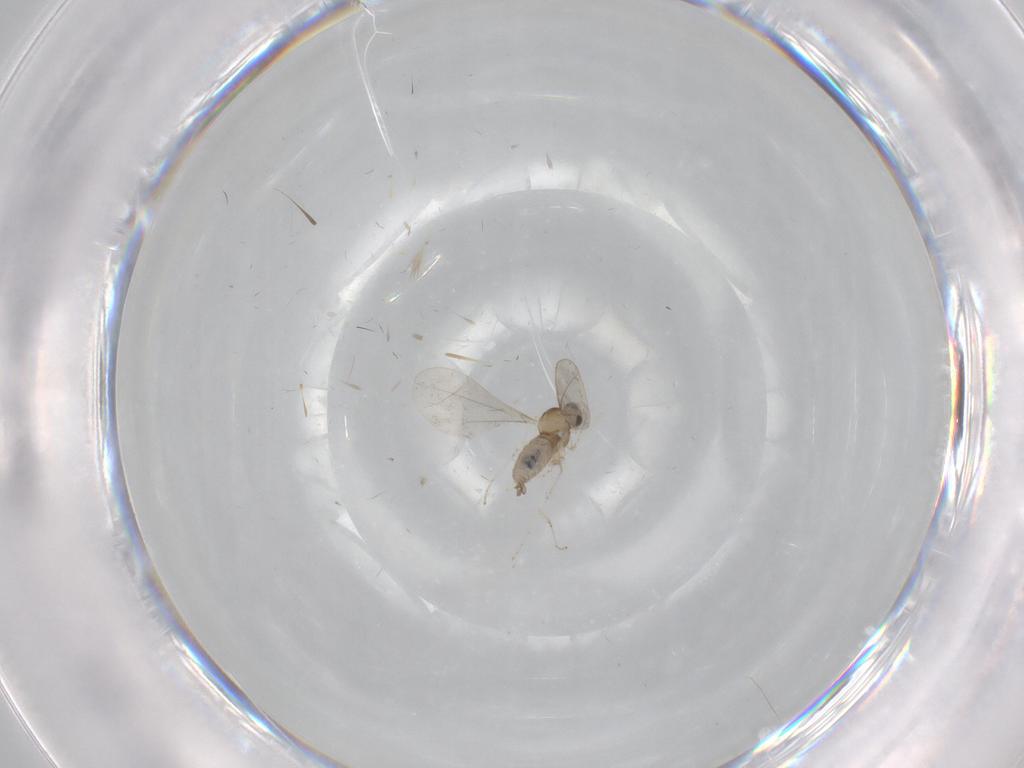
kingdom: Animalia
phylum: Arthropoda
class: Insecta
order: Diptera
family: Cecidomyiidae
